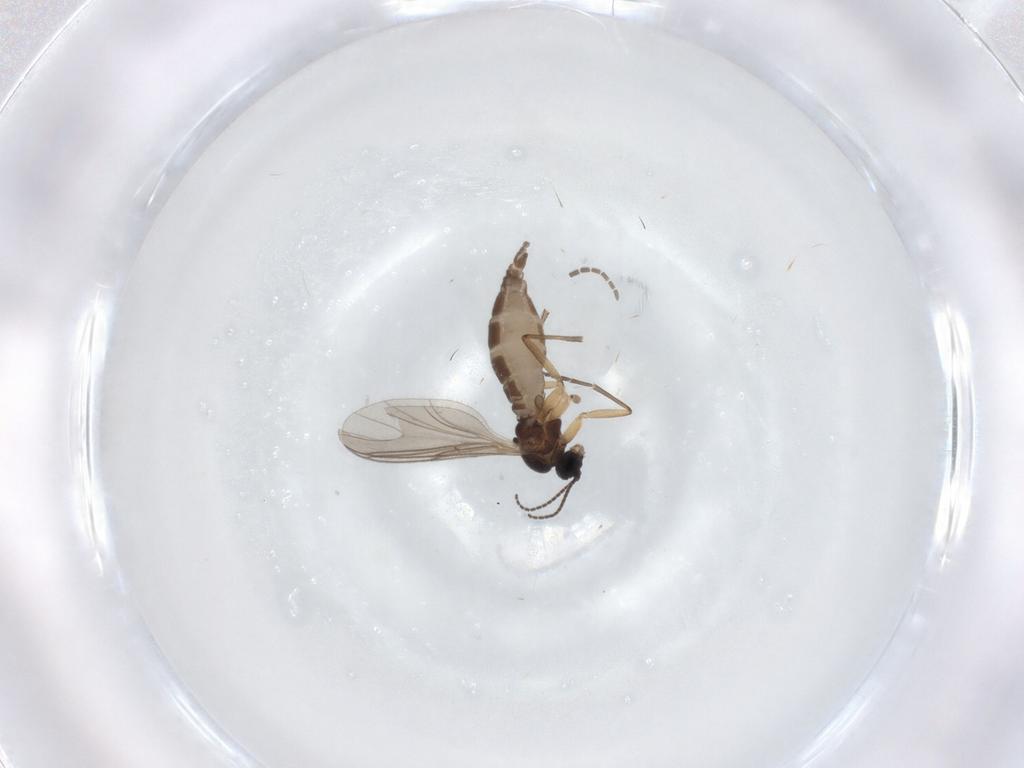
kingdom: Animalia
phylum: Arthropoda
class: Insecta
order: Diptera
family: Sciaridae
